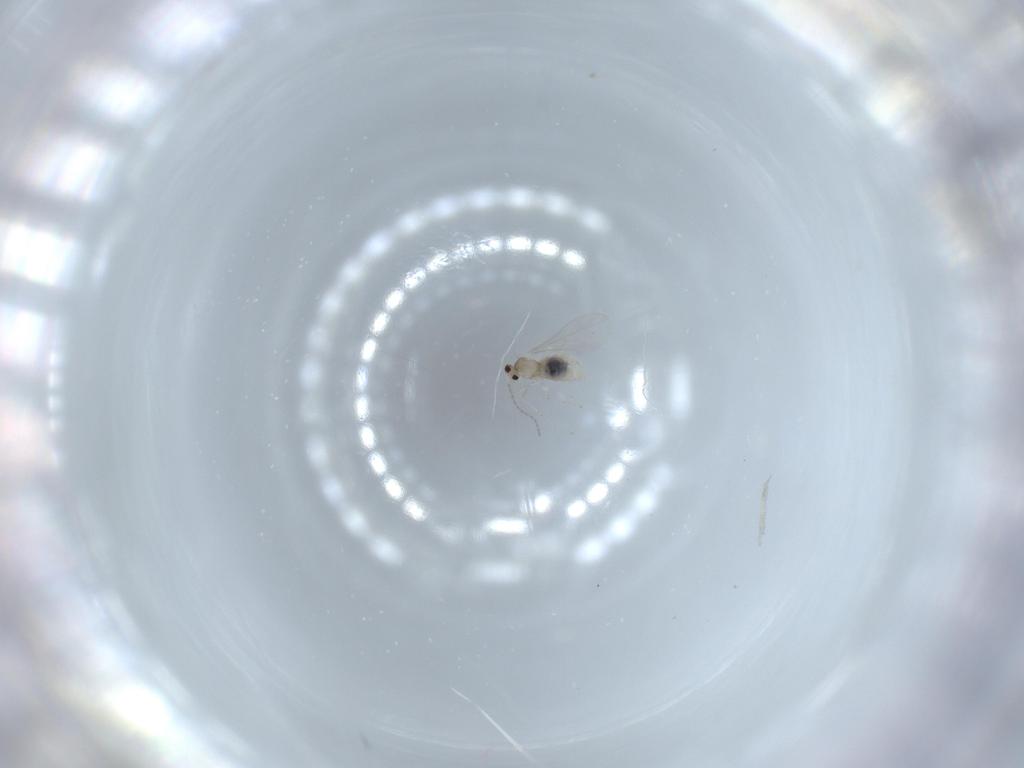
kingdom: Animalia
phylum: Arthropoda
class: Insecta
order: Diptera
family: Cecidomyiidae
